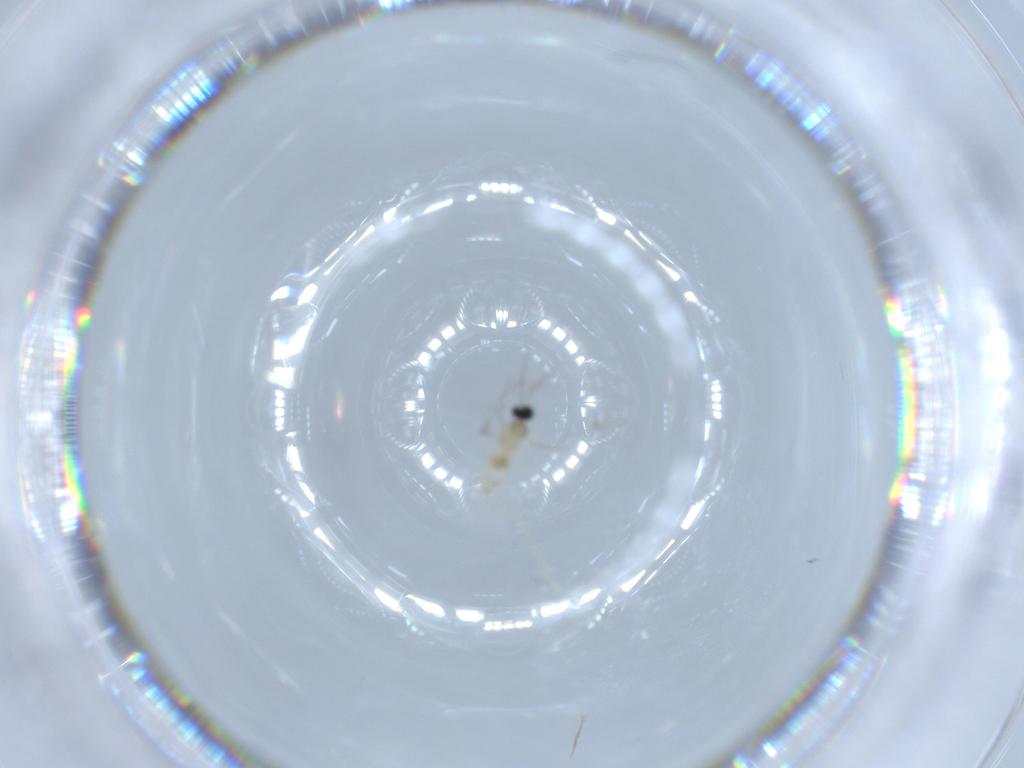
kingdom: Animalia
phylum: Arthropoda
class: Insecta
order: Diptera
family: Cecidomyiidae
